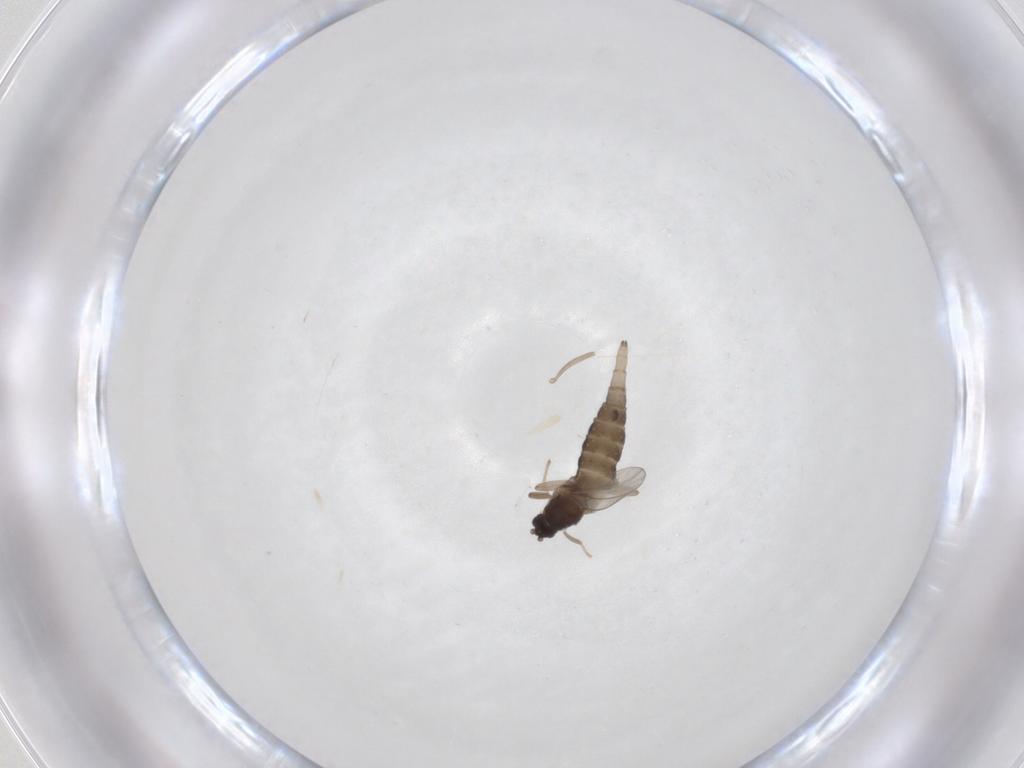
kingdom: Animalia
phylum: Arthropoda
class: Insecta
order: Diptera
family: Cecidomyiidae
